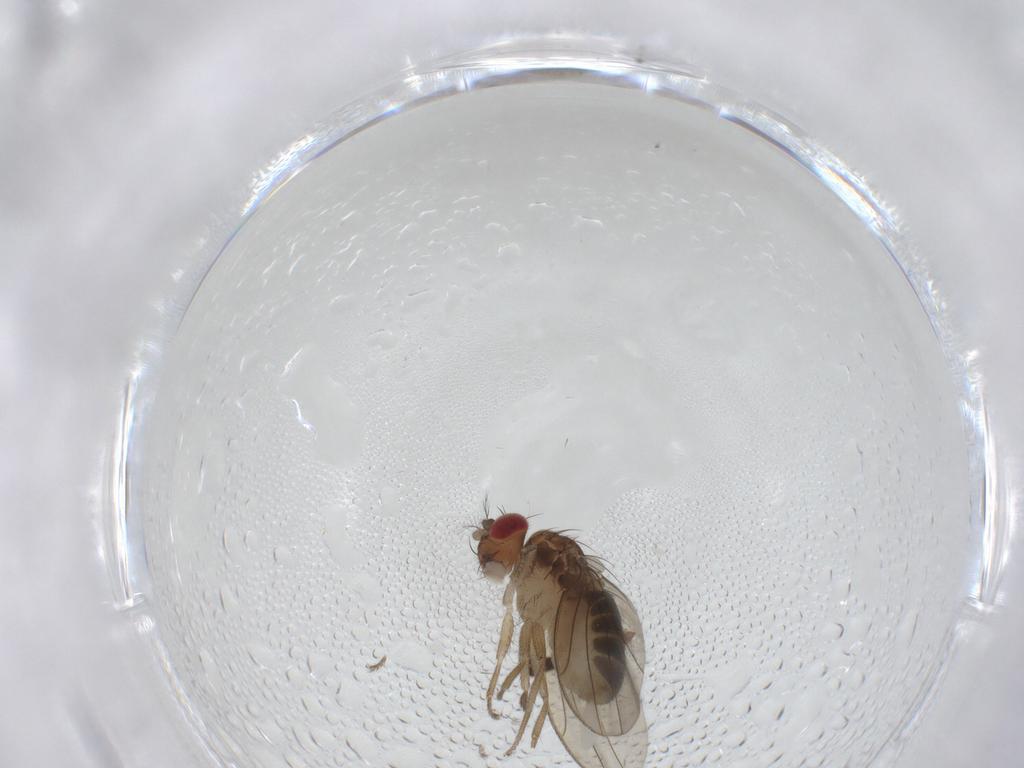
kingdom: Animalia
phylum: Arthropoda
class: Insecta
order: Diptera
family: Drosophilidae
